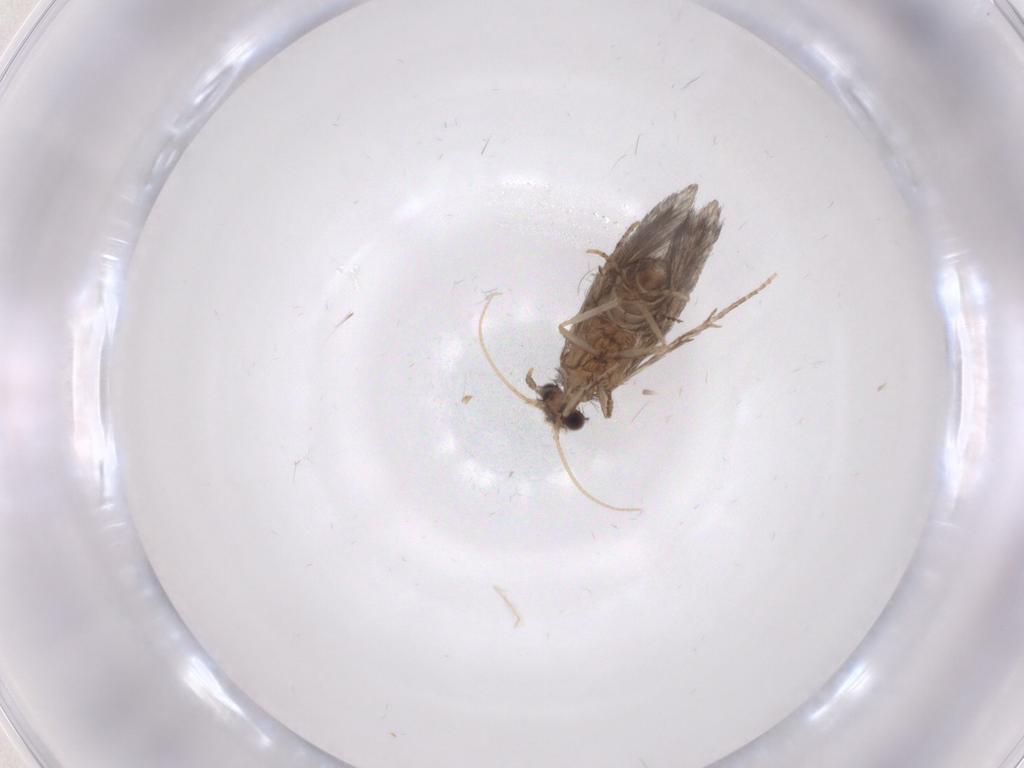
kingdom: Animalia
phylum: Arthropoda
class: Insecta
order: Trichoptera
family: Hydroptilidae
